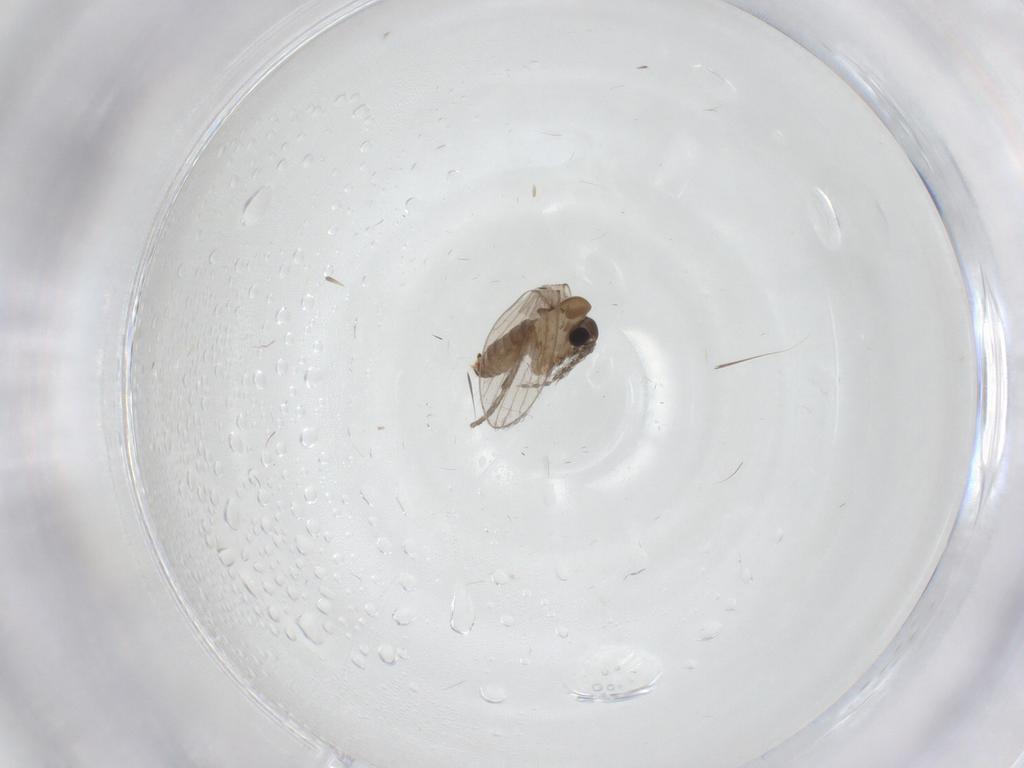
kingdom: Animalia
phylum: Arthropoda
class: Insecta
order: Diptera
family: Psychodidae
